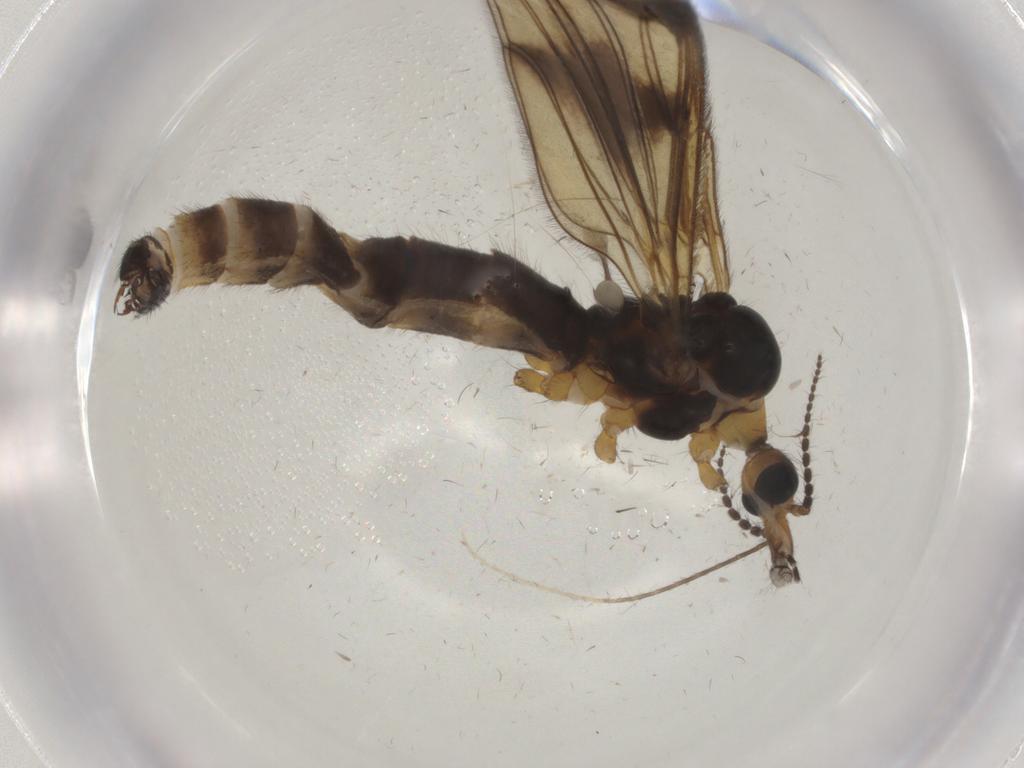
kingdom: Animalia
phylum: Arthropoda
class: Insecta
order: Diptera
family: Limoniidae
